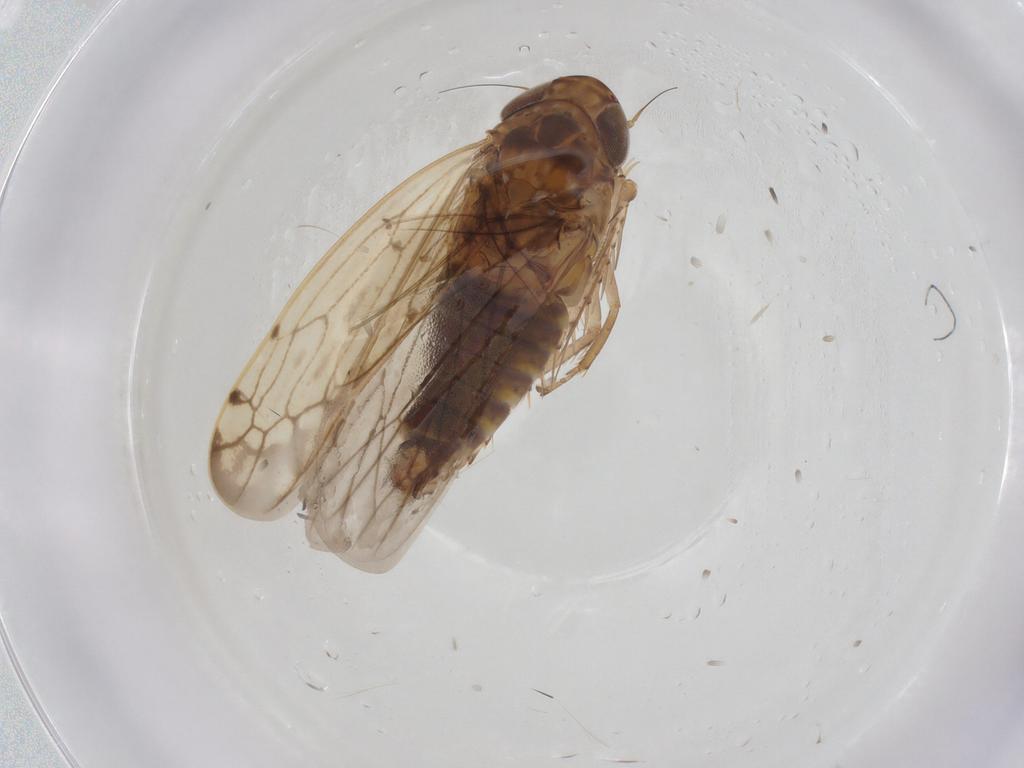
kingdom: Animalia
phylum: Arthropoda
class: Insecta
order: Hemiptera
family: Cicadellidae
